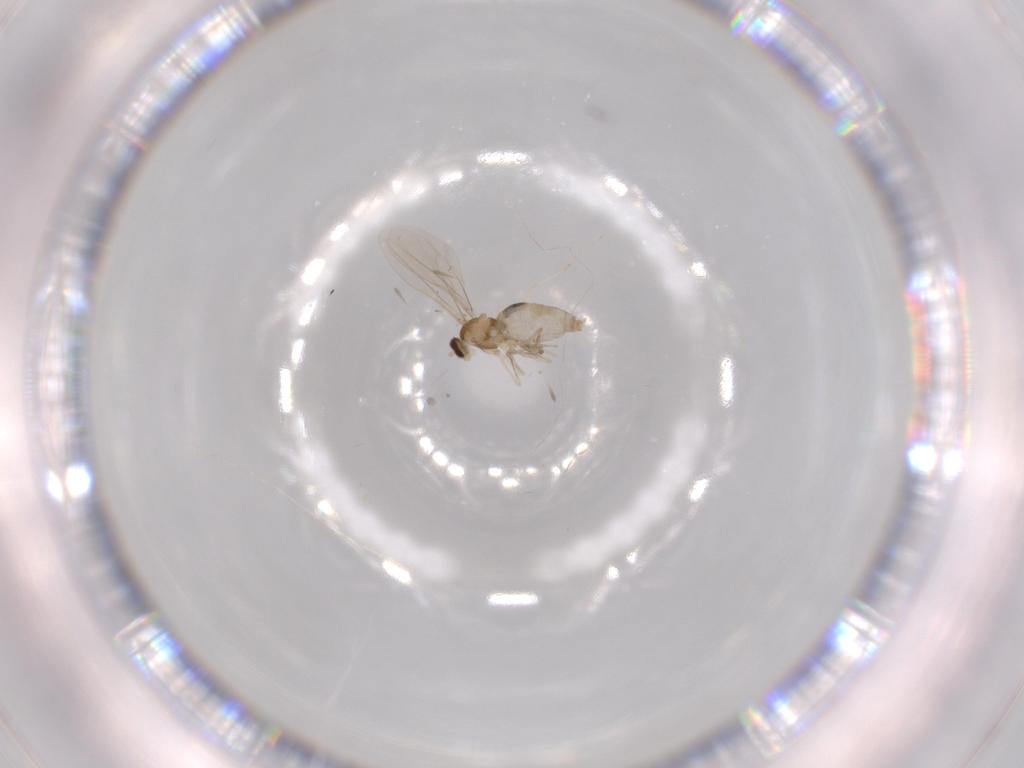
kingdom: Animalia
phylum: Arthropoda
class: Insecta
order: Diptera
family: Cecidomyiidae
